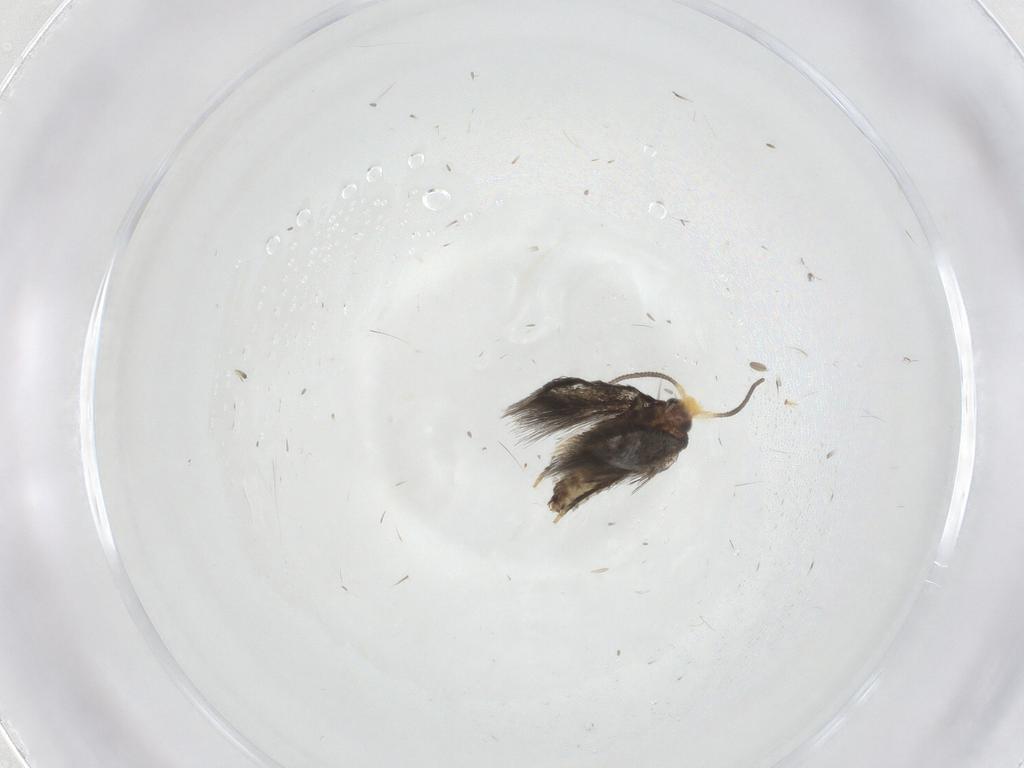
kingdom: Animalia
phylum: Arthropoda
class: Insecta
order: Lepidoptera
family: Nepticulidae
